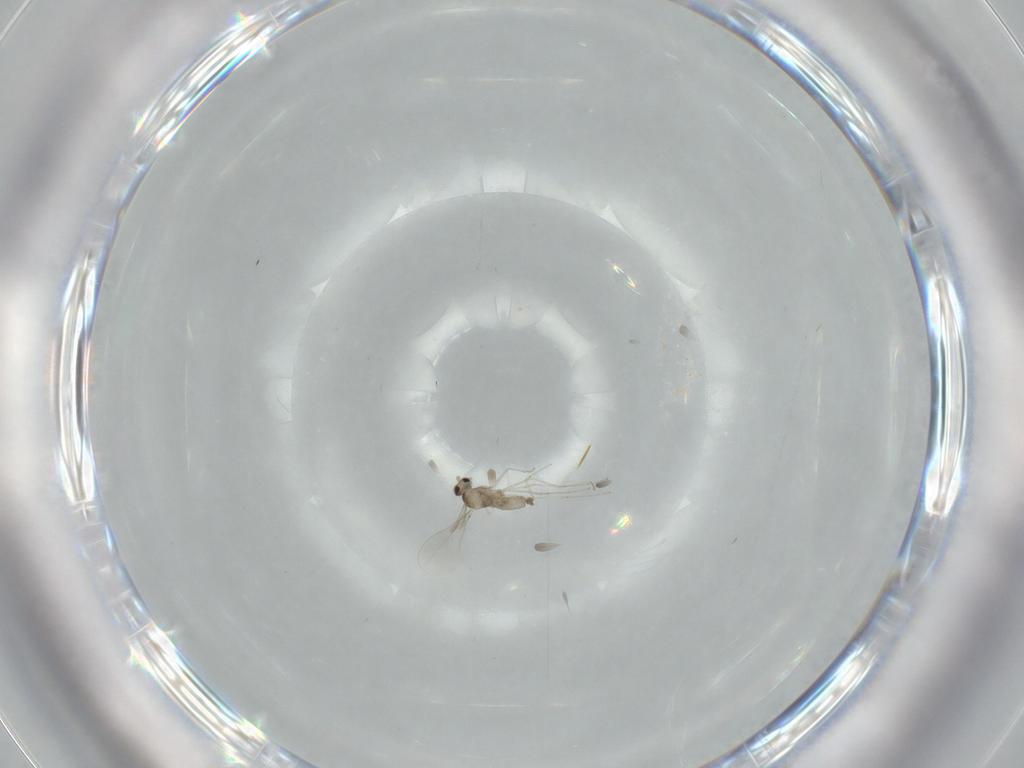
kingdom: Animalia
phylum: Arthropoda
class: Insecta
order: Diptera
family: Cecidomyiidae
